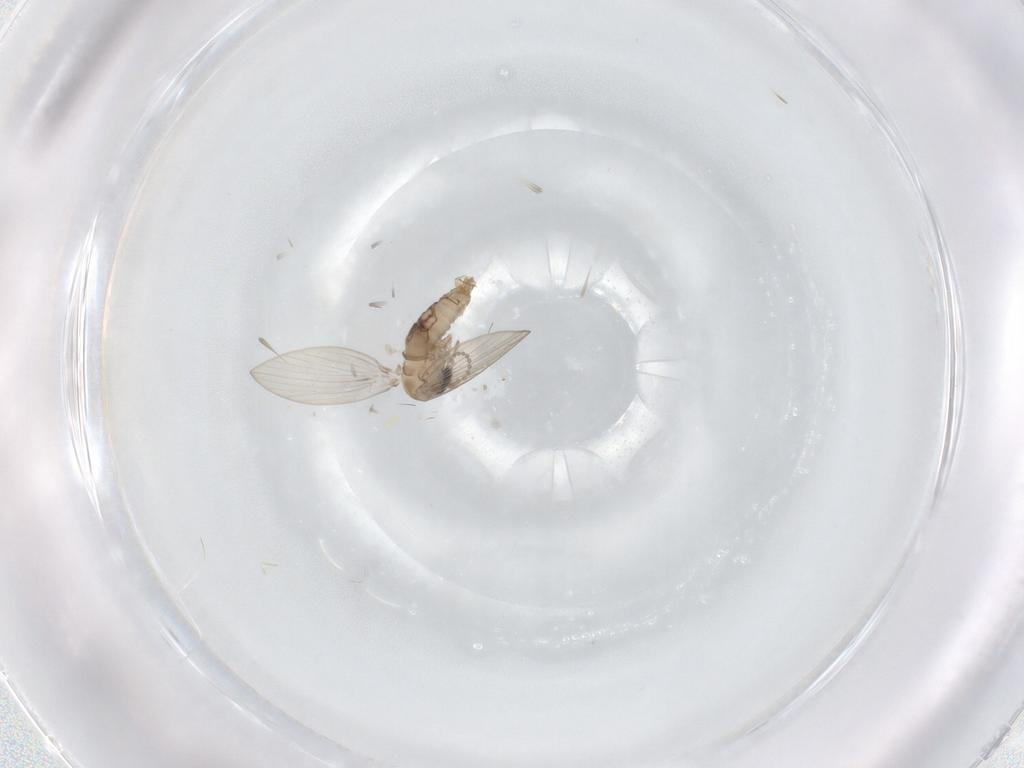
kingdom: Animalia
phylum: Arthropoda
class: Insecta
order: Diptera
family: Psychodidae
